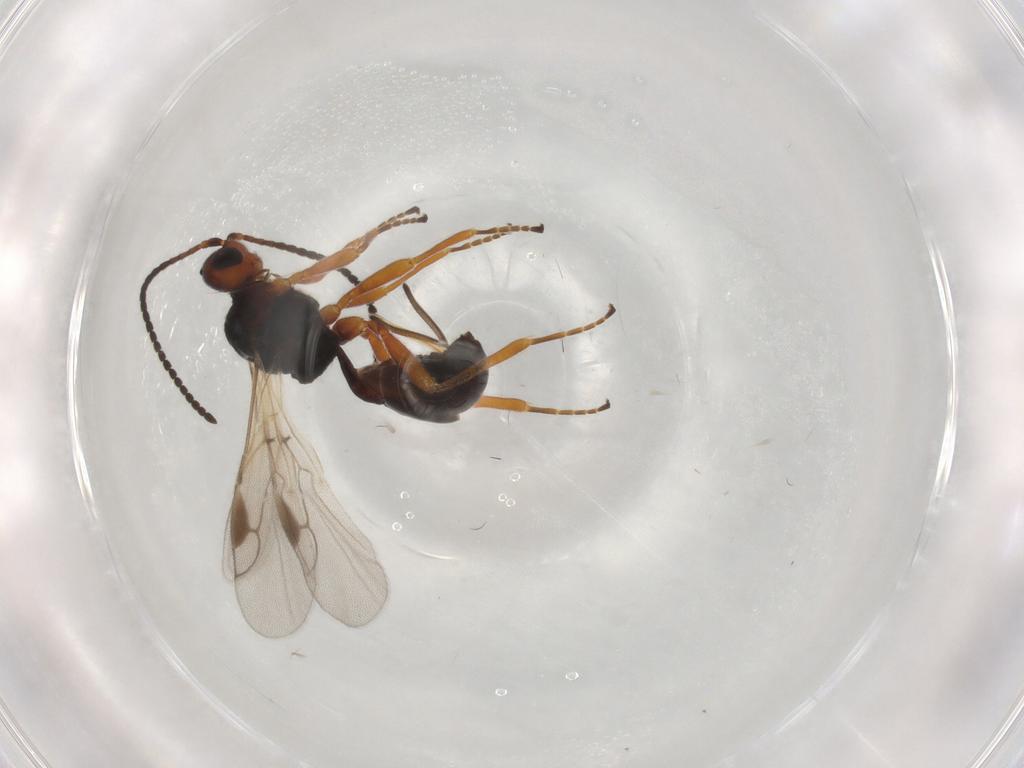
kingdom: Animalia
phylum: Arthropoda
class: Insecta
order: Hymenoptera
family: Braconidae
